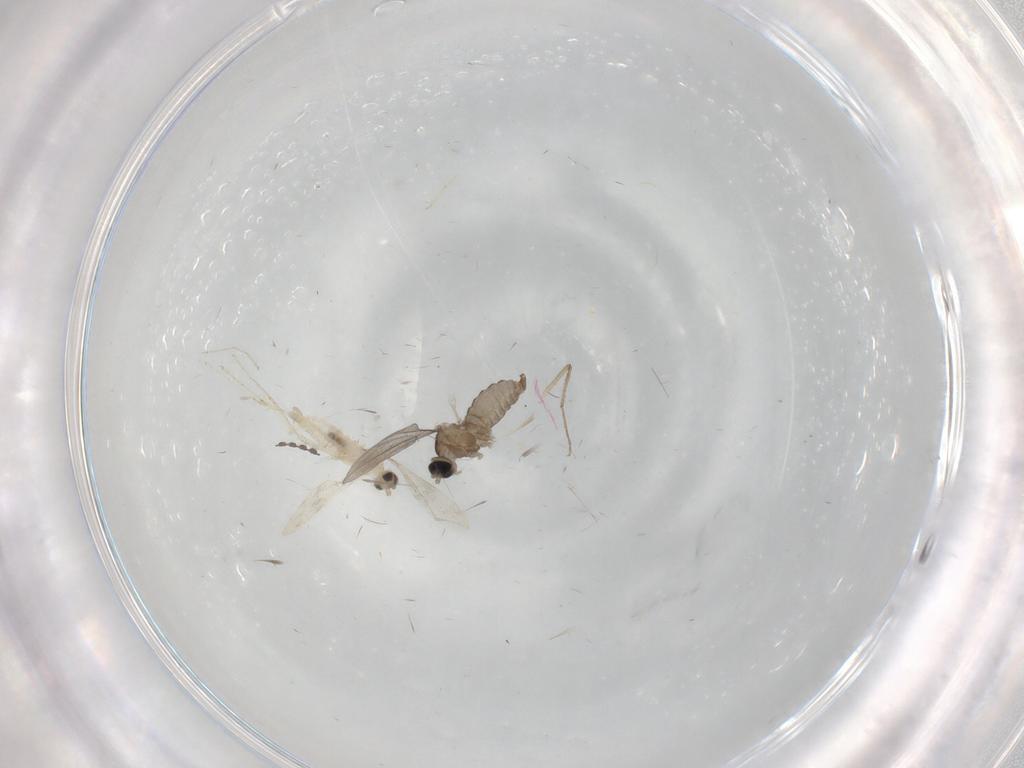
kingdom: Animalia
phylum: Arthropoda
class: Insecta
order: Diptera
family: Cecidomyiidae
